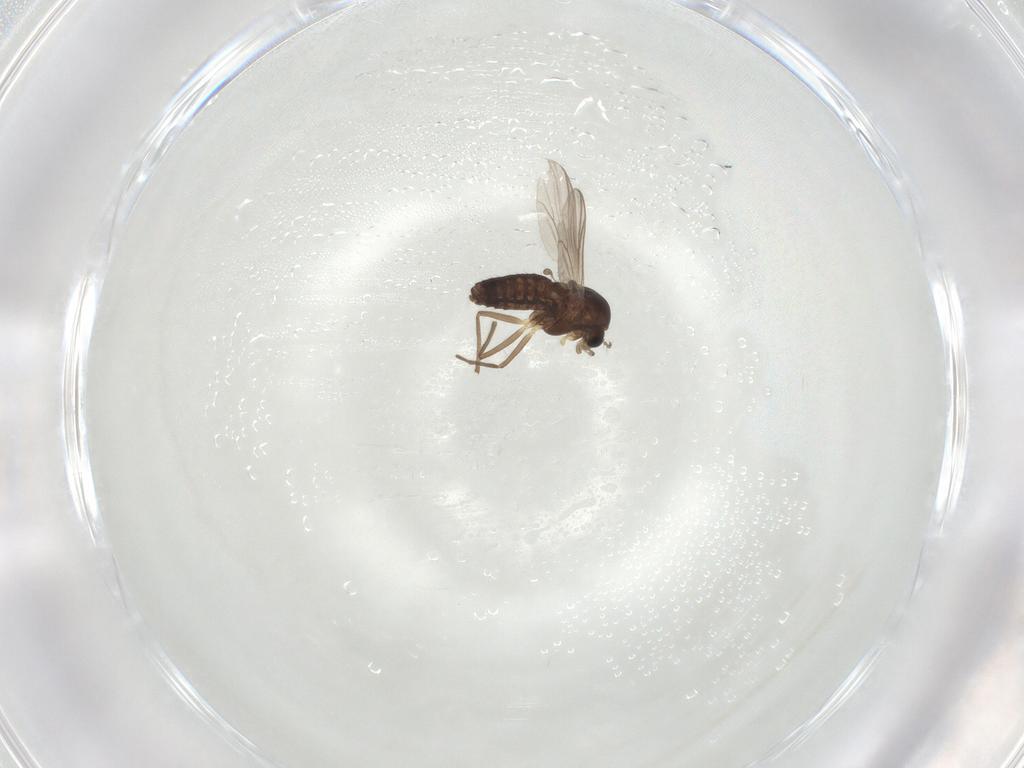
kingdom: Animalia
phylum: Arthropoda
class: Insecta
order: Diptera
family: Chironomidae
